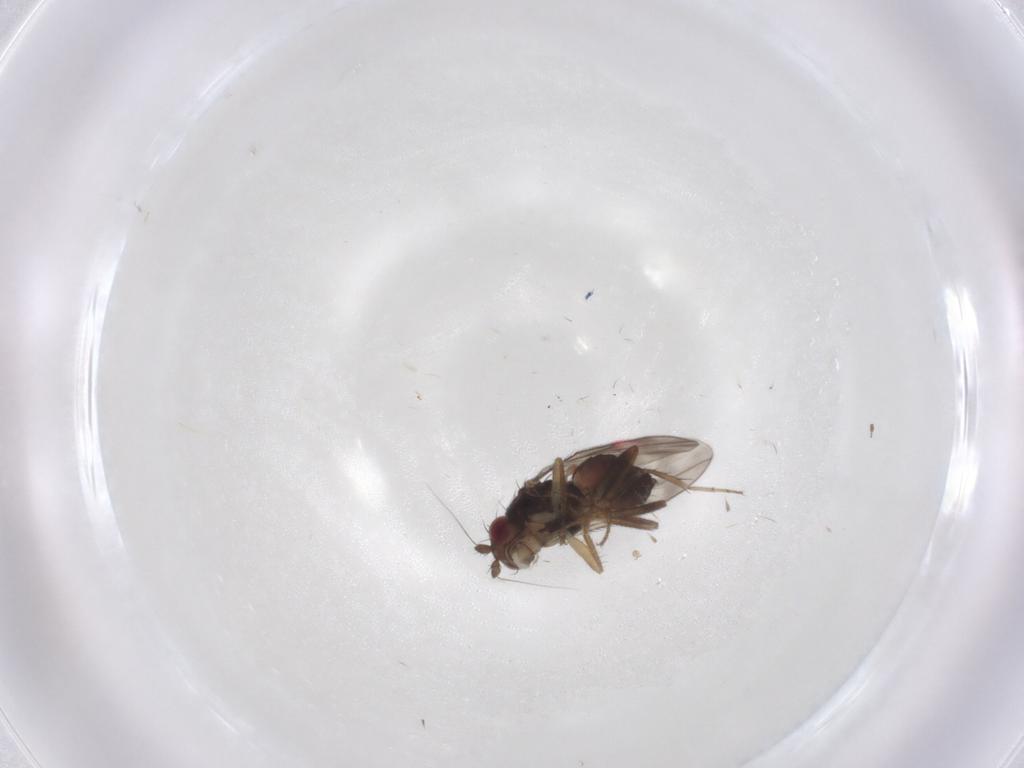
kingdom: Animalia
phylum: Arthropoda
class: Insecta
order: Diptera
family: Sphaeroceridae
